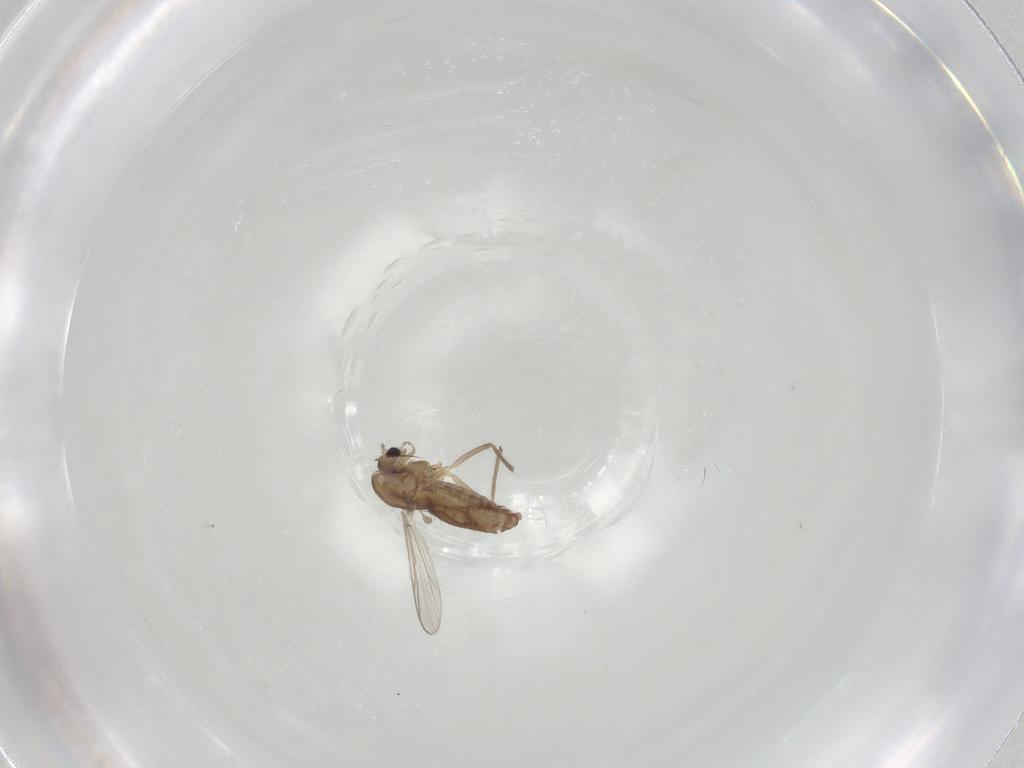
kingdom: Animalia
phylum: Arthropoda
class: Insecta
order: Diptera
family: Chironomidae
